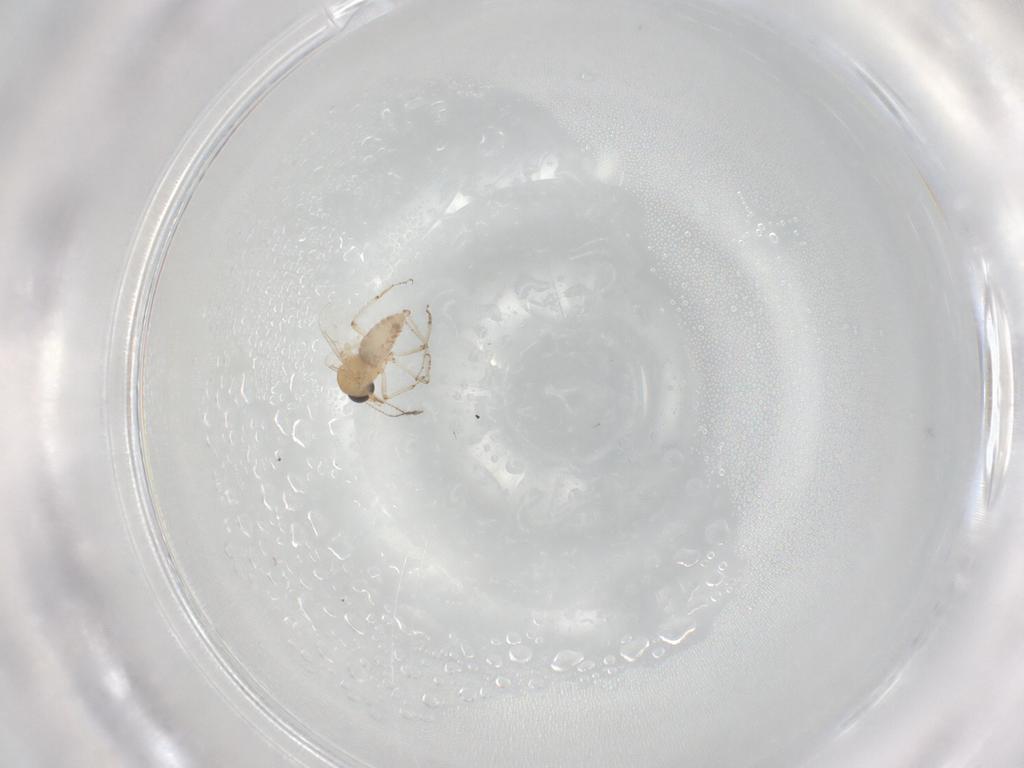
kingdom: Animalia
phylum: Arthropoda
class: Insecta
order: Diptera
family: Ceratopogonidae
